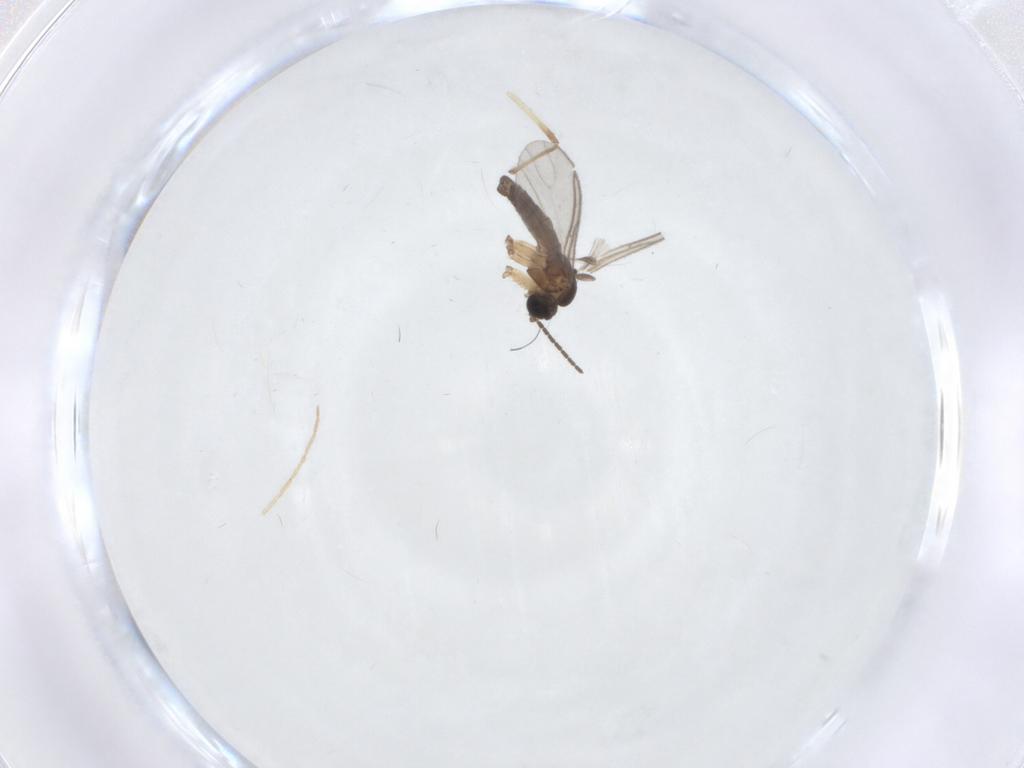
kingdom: Animalia
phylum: Arthropoda
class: Insecta
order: Diptera
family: Sciaridae
